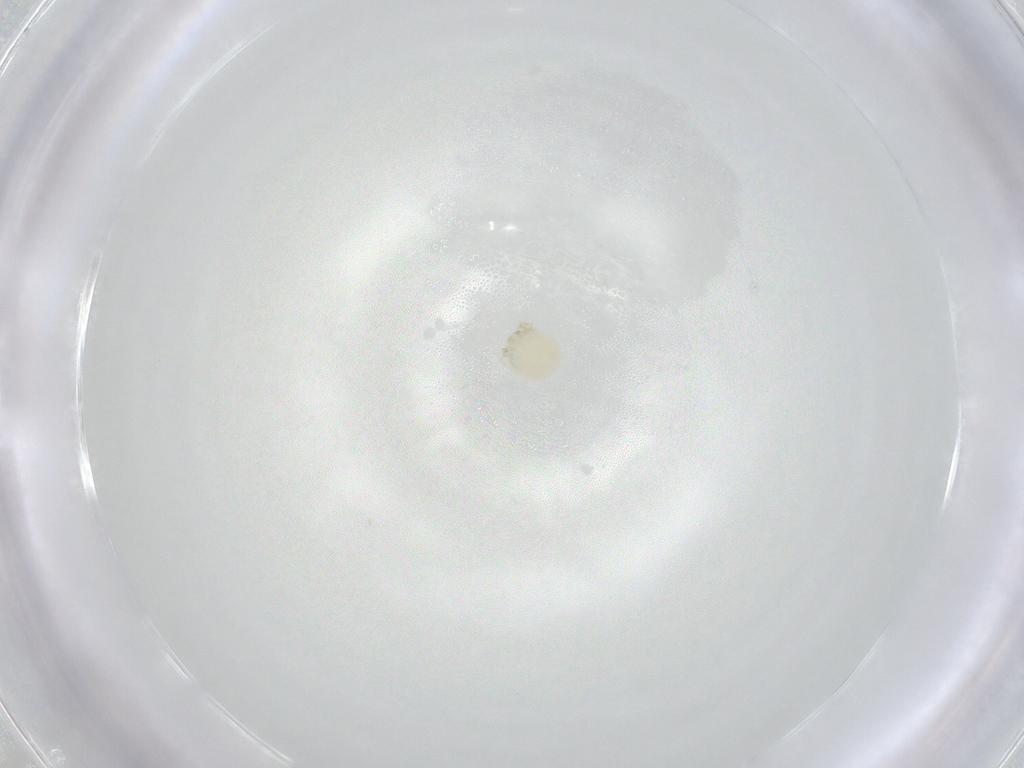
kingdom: Animalia
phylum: Arthropoda
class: Arachnida
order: Trombidiformes
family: Arrenuridae
